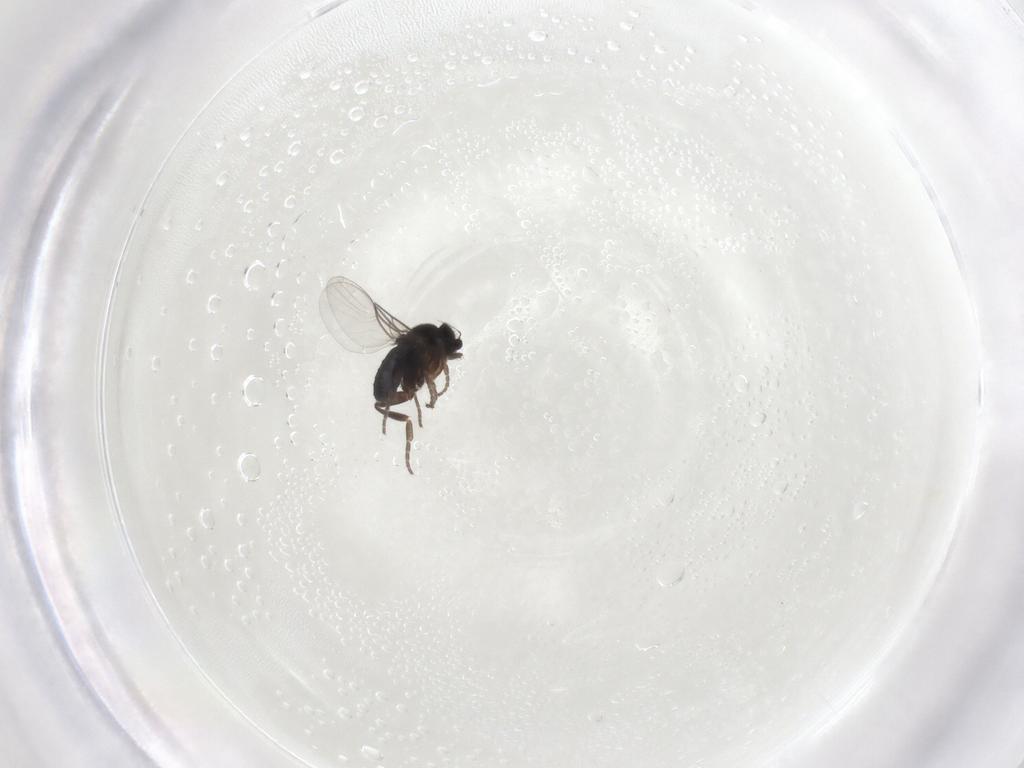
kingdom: Animalia
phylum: Arthropoda
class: Insecta
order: Diptera
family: Phoridae
